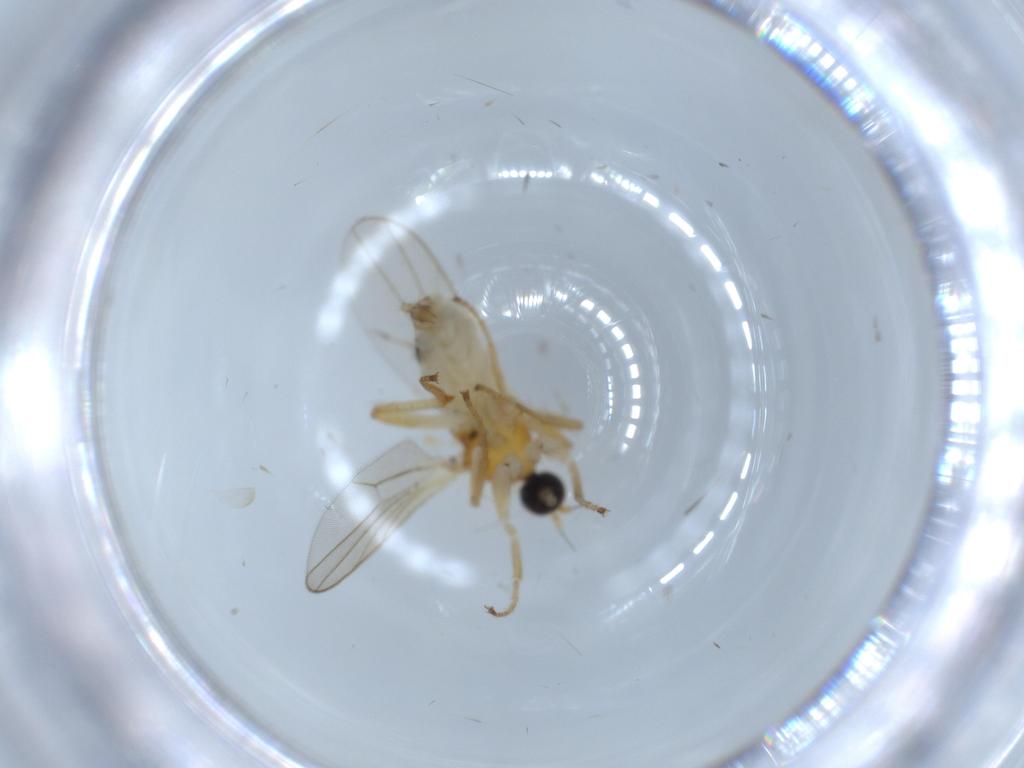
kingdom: Animalia
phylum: Arthropoda
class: Insecta
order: Diptera
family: Hybotidae
